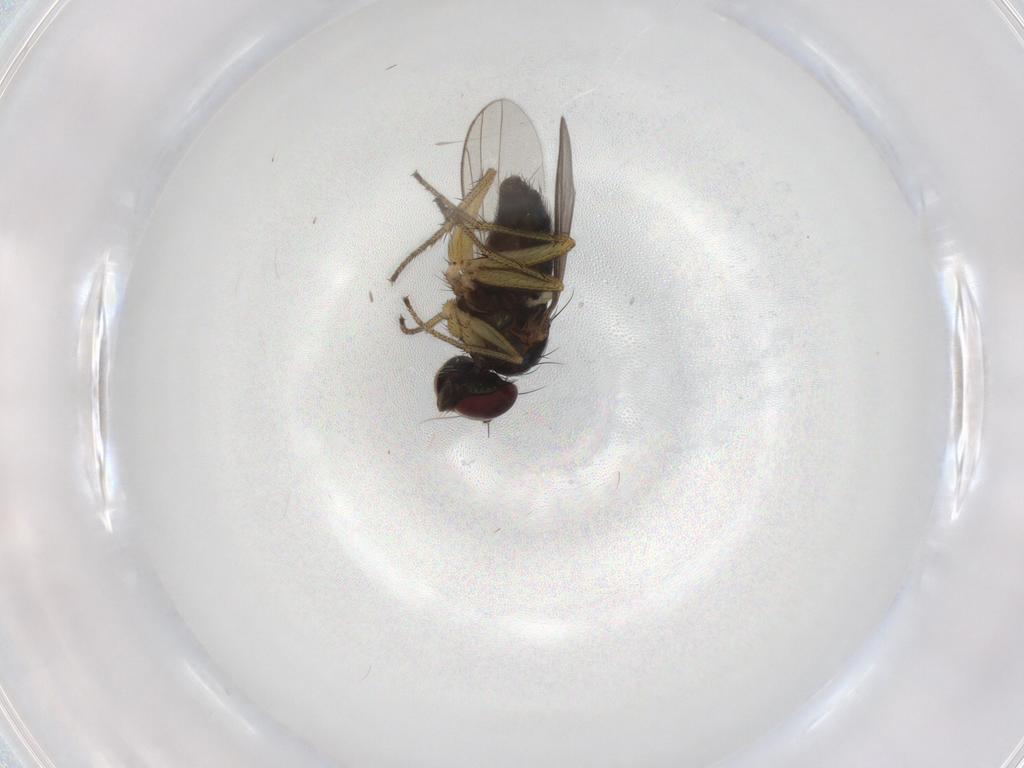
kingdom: Animalia
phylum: Arthropoda
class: Insecta
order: Diptera
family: Dolichopodidae
